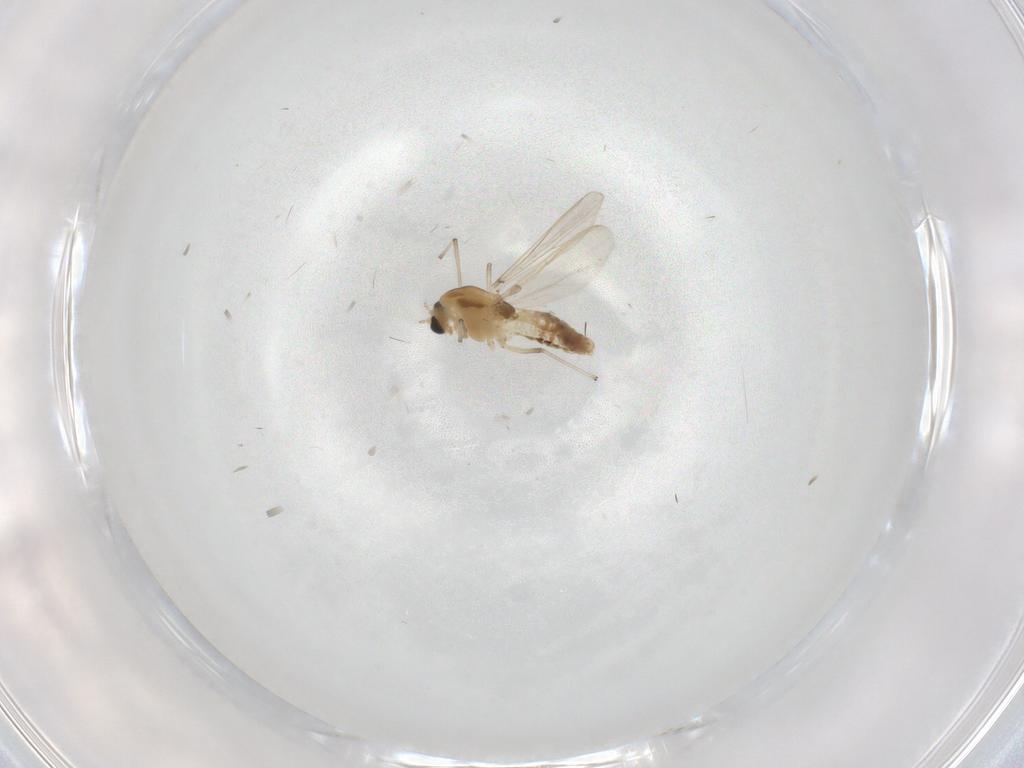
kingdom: Animalia
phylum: Arthropoda
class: Insecta
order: Diptera
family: Chironomidae
